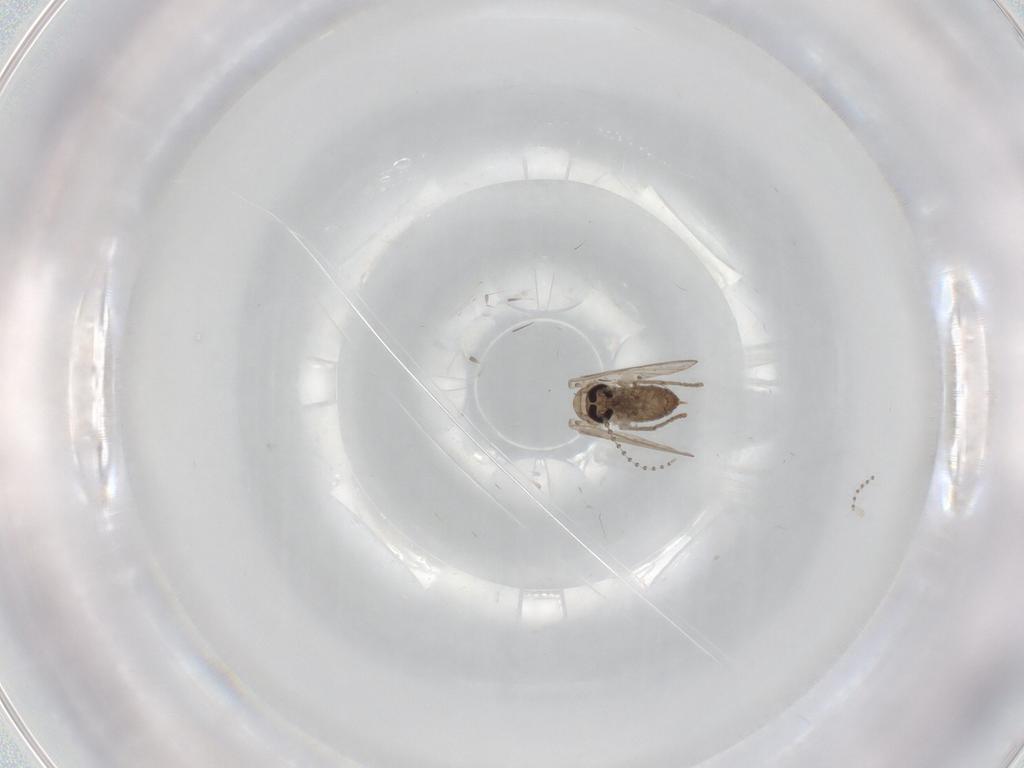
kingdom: Animalia
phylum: Arthropoda
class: Insecta
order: Diptera
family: Psychodidae
